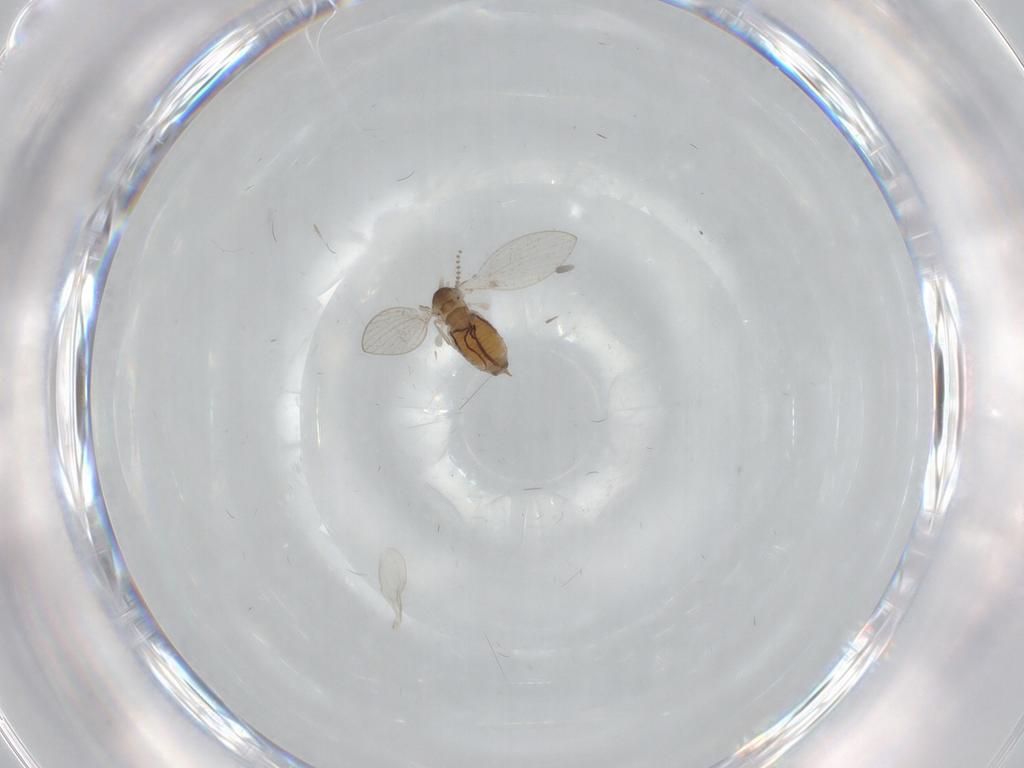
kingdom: Animalia
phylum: Arthropoda
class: Insecta
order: Diptera
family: Psychodidae
